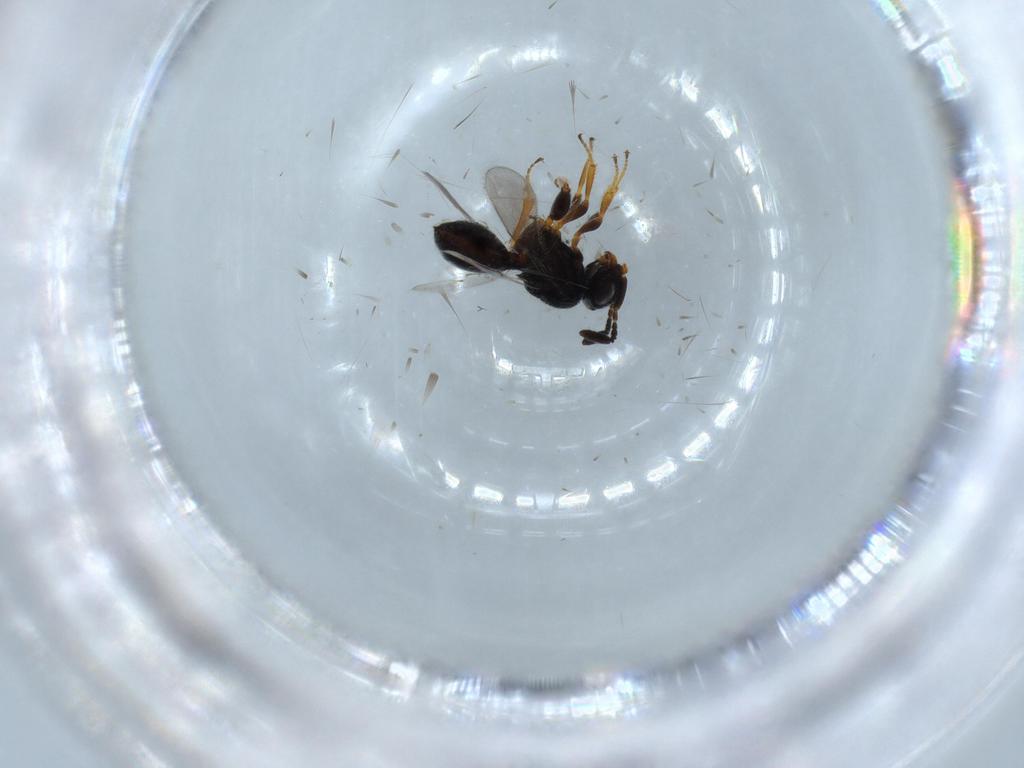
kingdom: Animalia
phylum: Arthropoda
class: Insecta
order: Hymenoptera
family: Scelionidae
